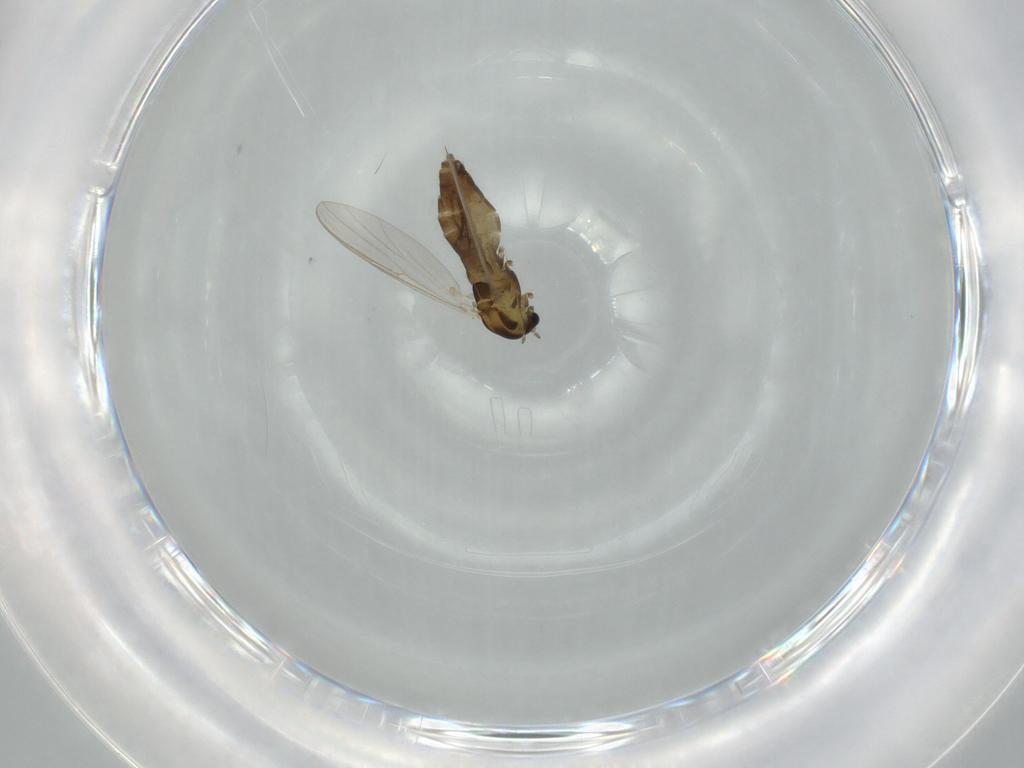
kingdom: Animalia
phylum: Arthropoda
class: Insecta
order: Diptera
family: Chironomidae
